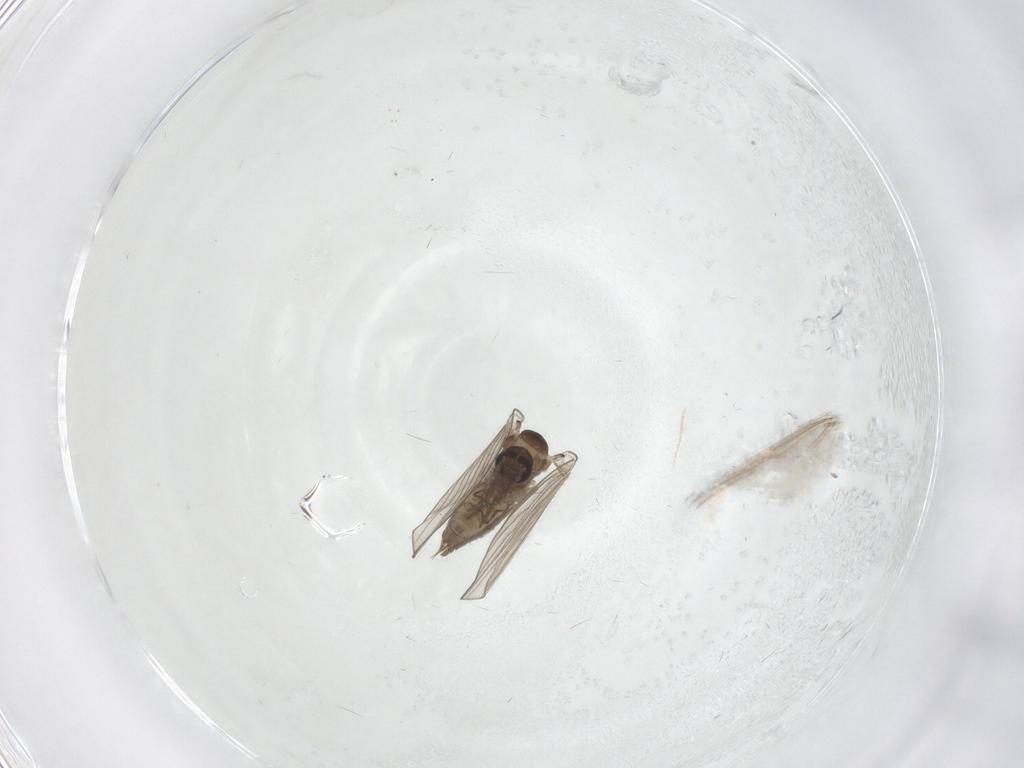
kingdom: Animalia
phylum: Arthropoda
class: Insecta
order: Diptera
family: Psychodidae
